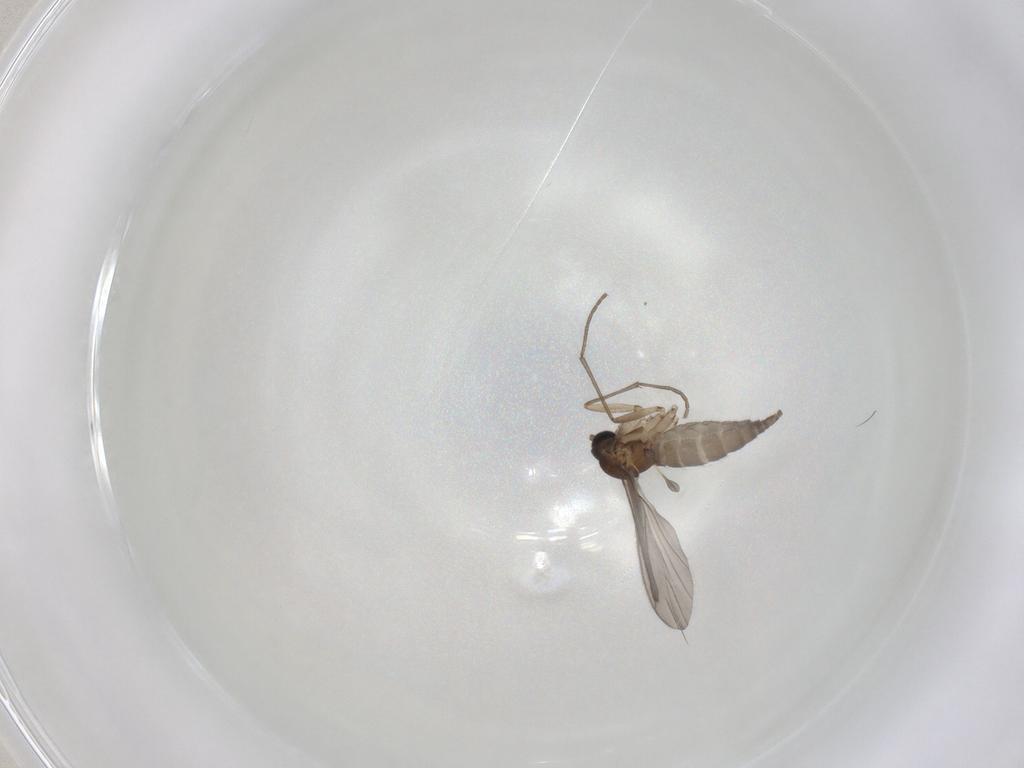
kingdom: Animalia
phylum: Arthropoda
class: Insecta
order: Diptera
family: Sciaridae
